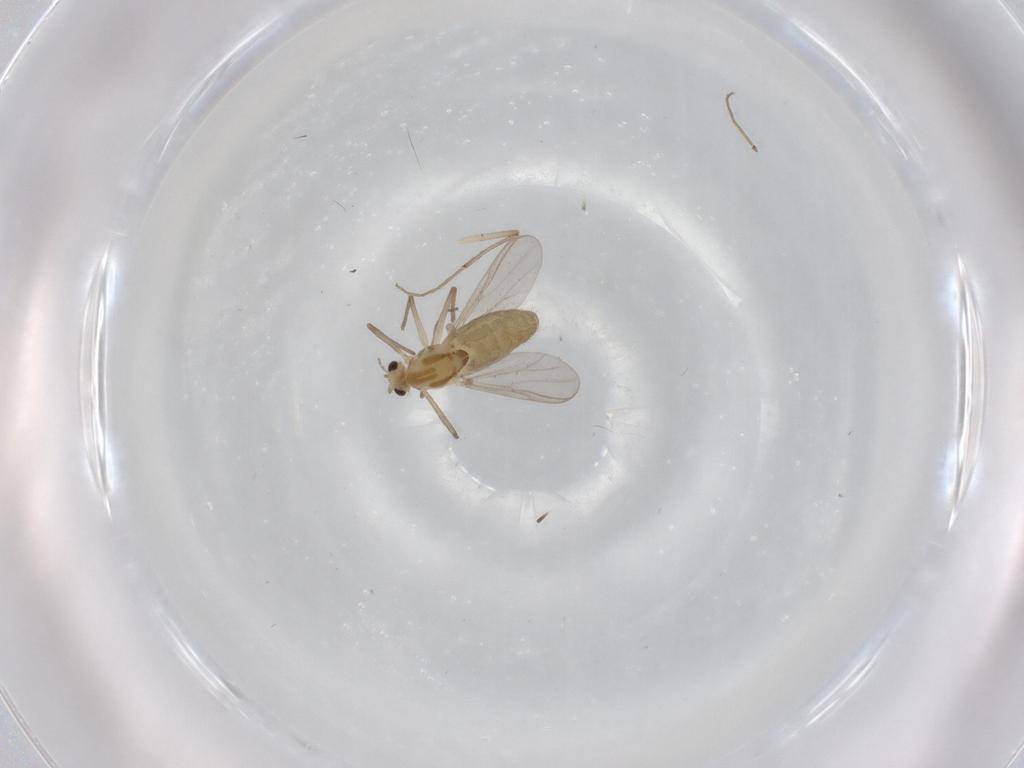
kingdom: Animalia
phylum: Arthropoda
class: Insecta
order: Diptera
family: Chironomidae
